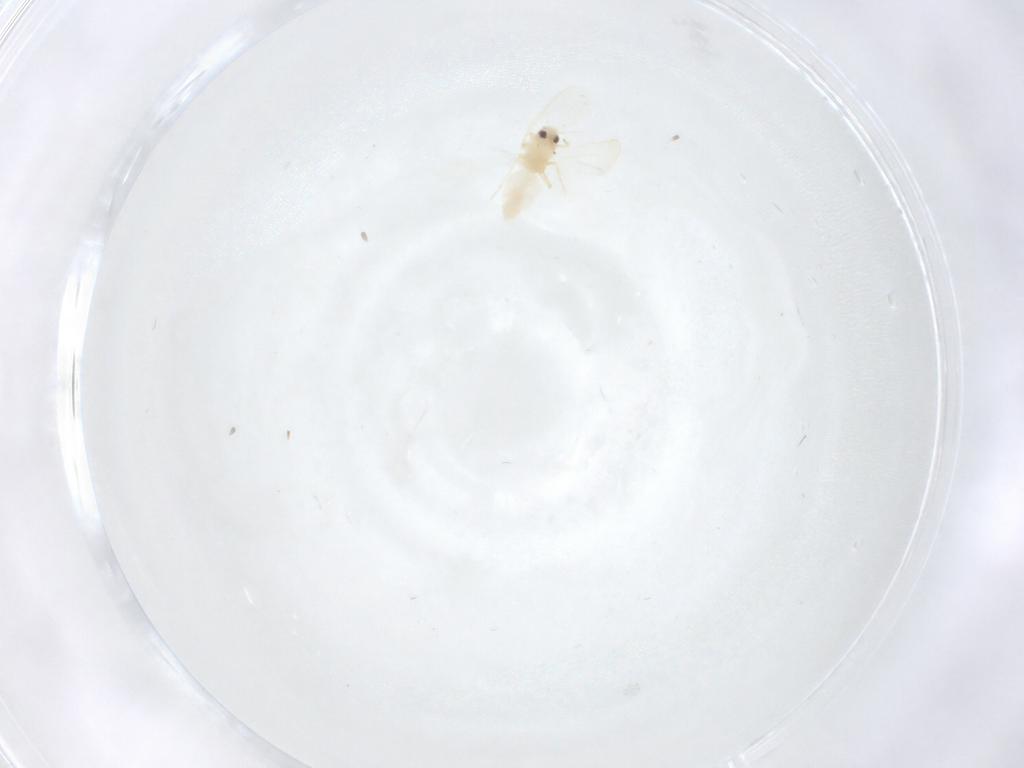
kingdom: Animalia
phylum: Arthropoda
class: Insecta
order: Hemiptera
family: Aleyrodidae
